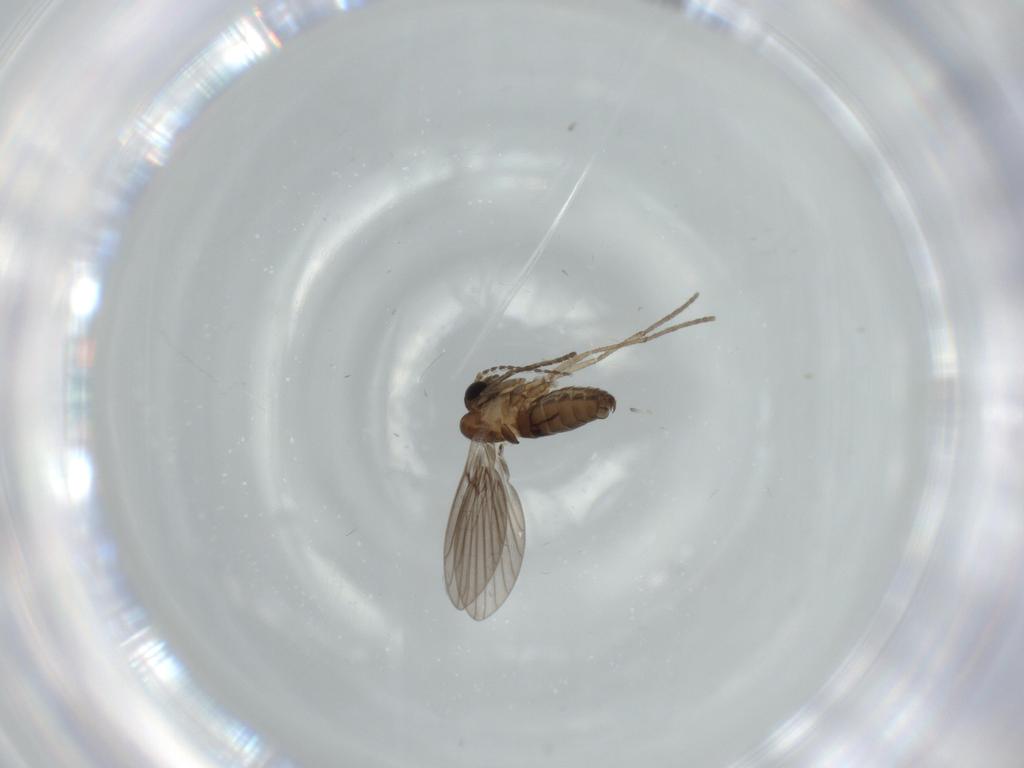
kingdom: Animalia
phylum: Arthropoda
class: Insecta
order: Diptera
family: Psychodidae
